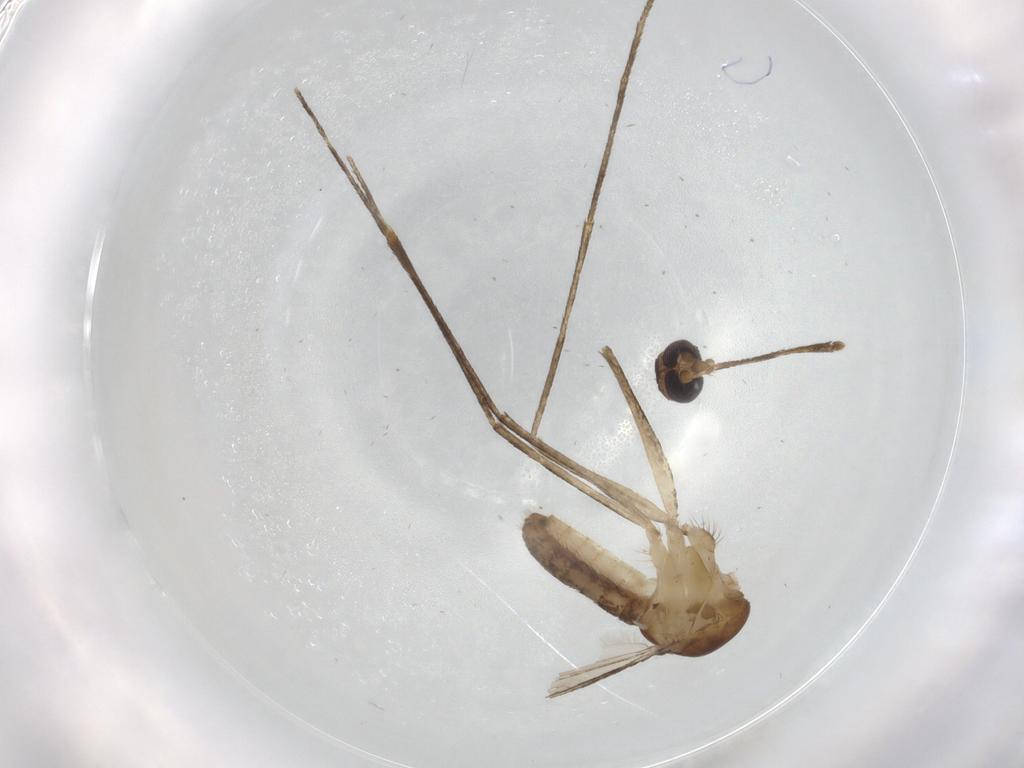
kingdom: Animalia
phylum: Arthropoda
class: Insecta
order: Diptera
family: Culicidae
